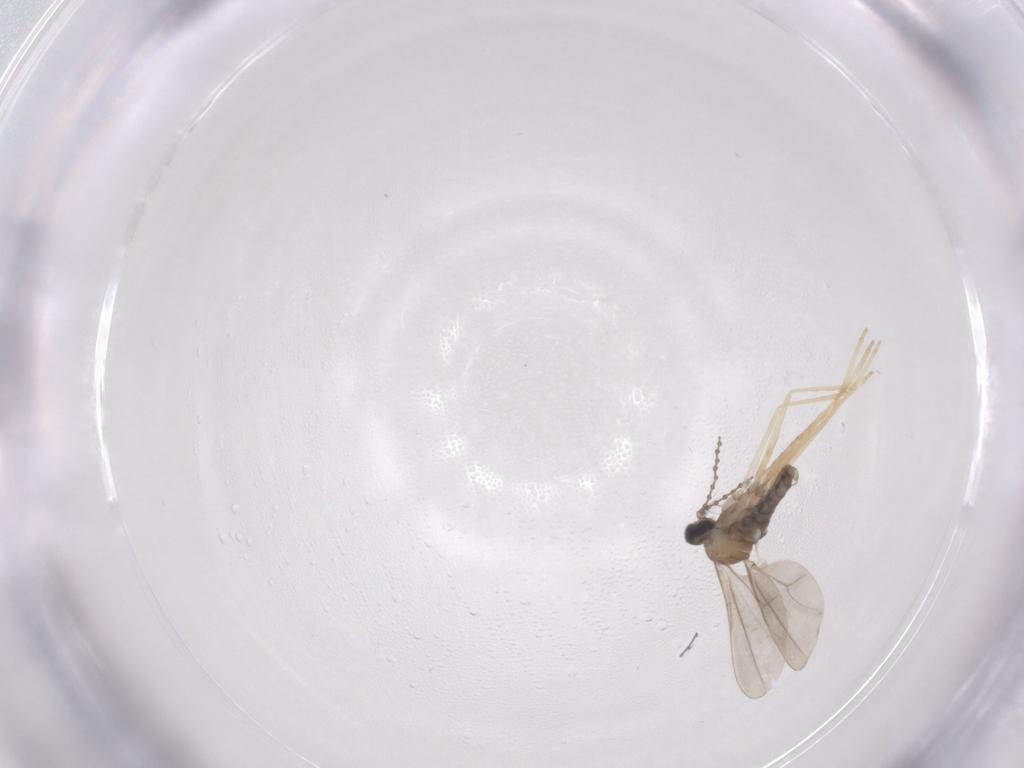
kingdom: Animalia
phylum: Arthropoda
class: Insecta
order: Diptera
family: Cecidomyiidae
